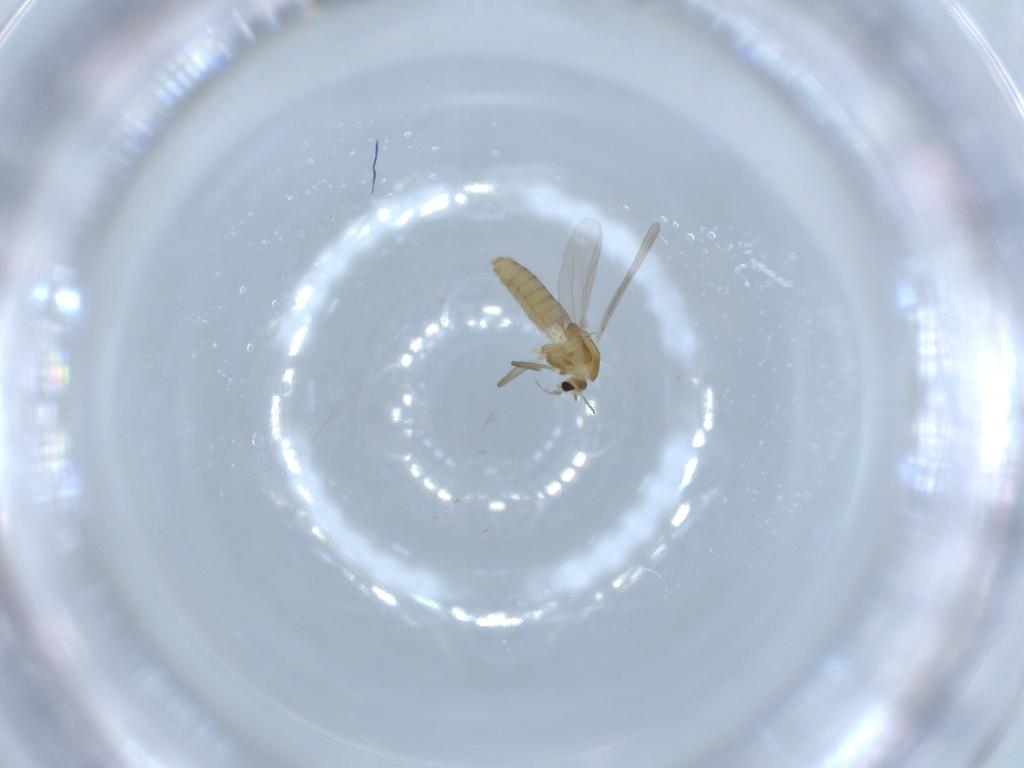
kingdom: Animalia
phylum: Arthropoda
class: Insecta
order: Diptera
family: Chironomidae
